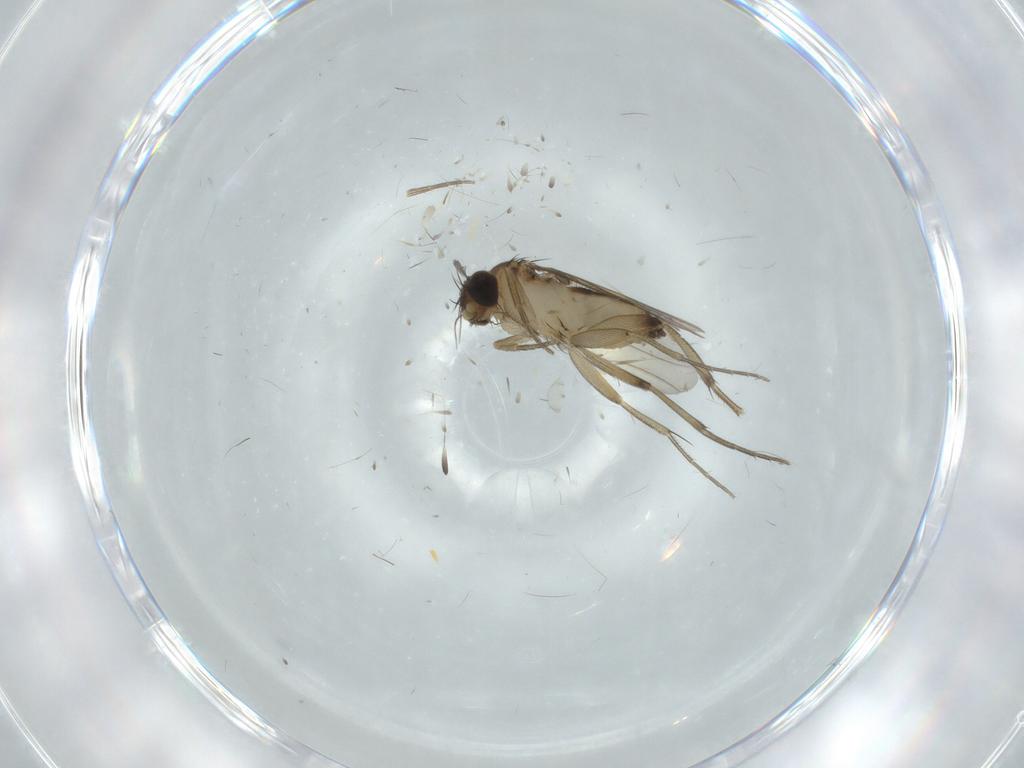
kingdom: Animalia
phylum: Arthropoda
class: Insecta
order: Diptera
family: Phoridae
